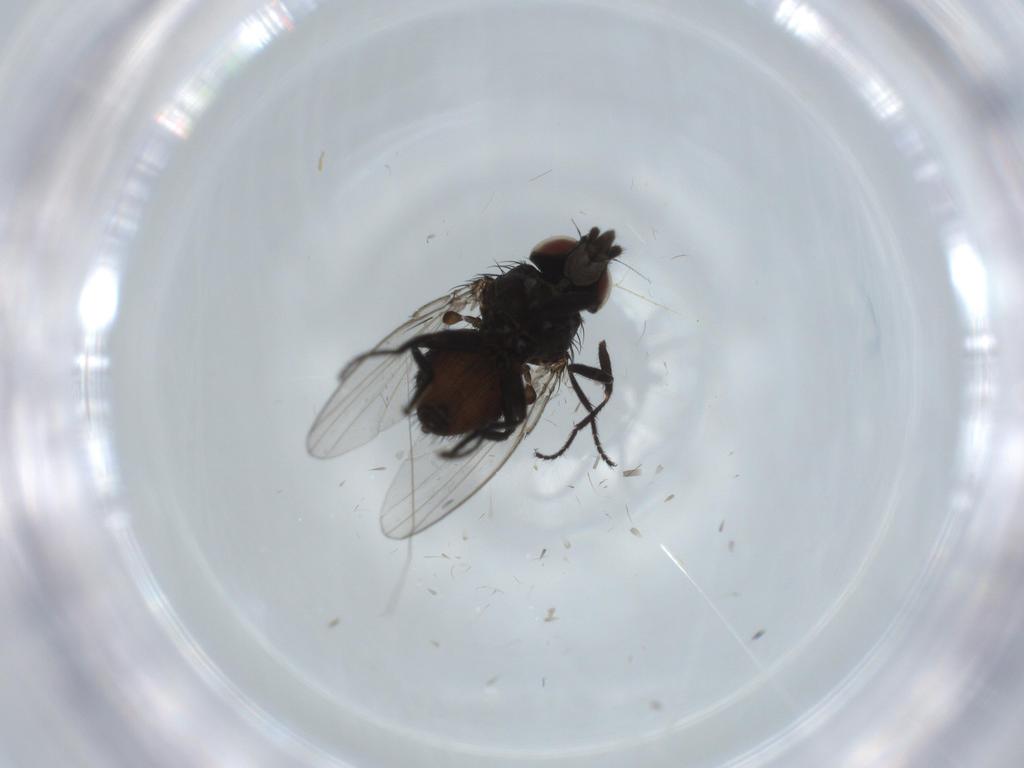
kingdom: Animalia
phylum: Arthropoda
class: Insecta
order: Diptera
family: Milichiidae
